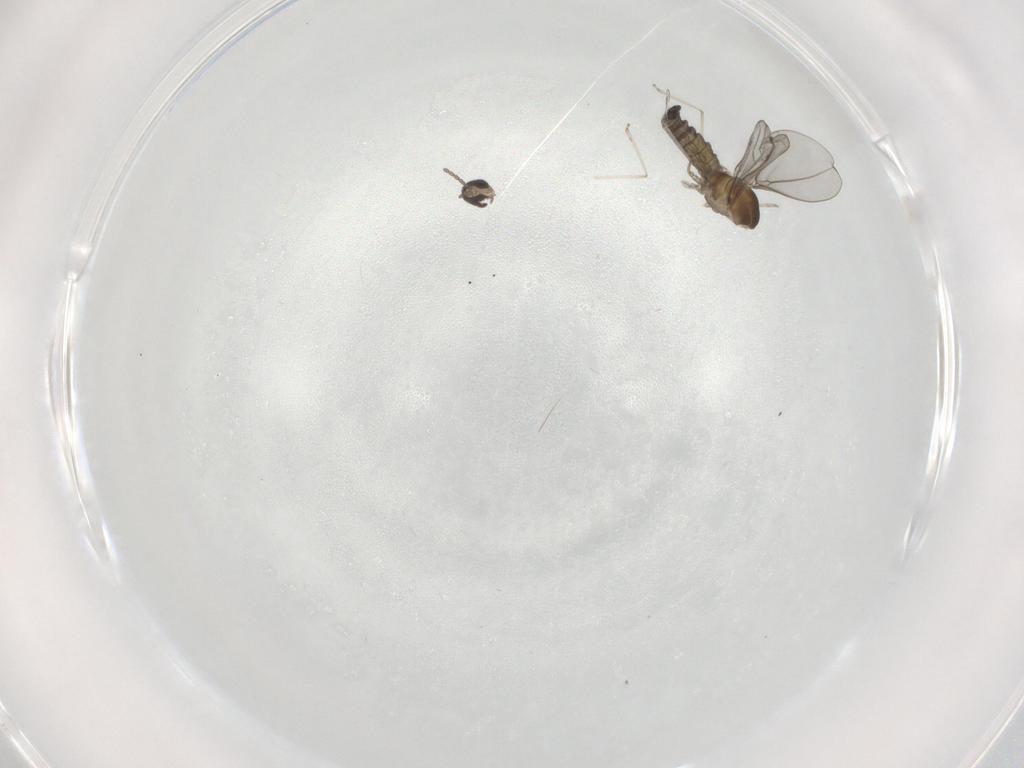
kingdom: Animalia
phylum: Arthropoda
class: Insecta
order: Diptera
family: Cecidomyiidae
